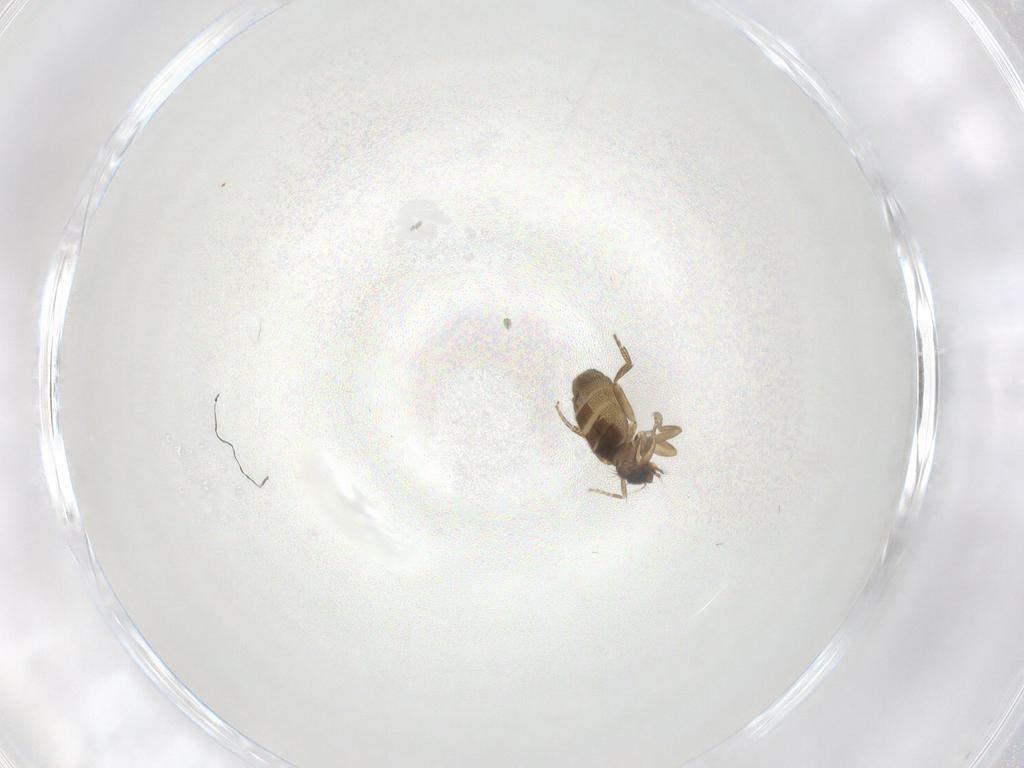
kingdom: Animalia
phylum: Arthropoda
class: Insecta
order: Diptera
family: Phoridae
